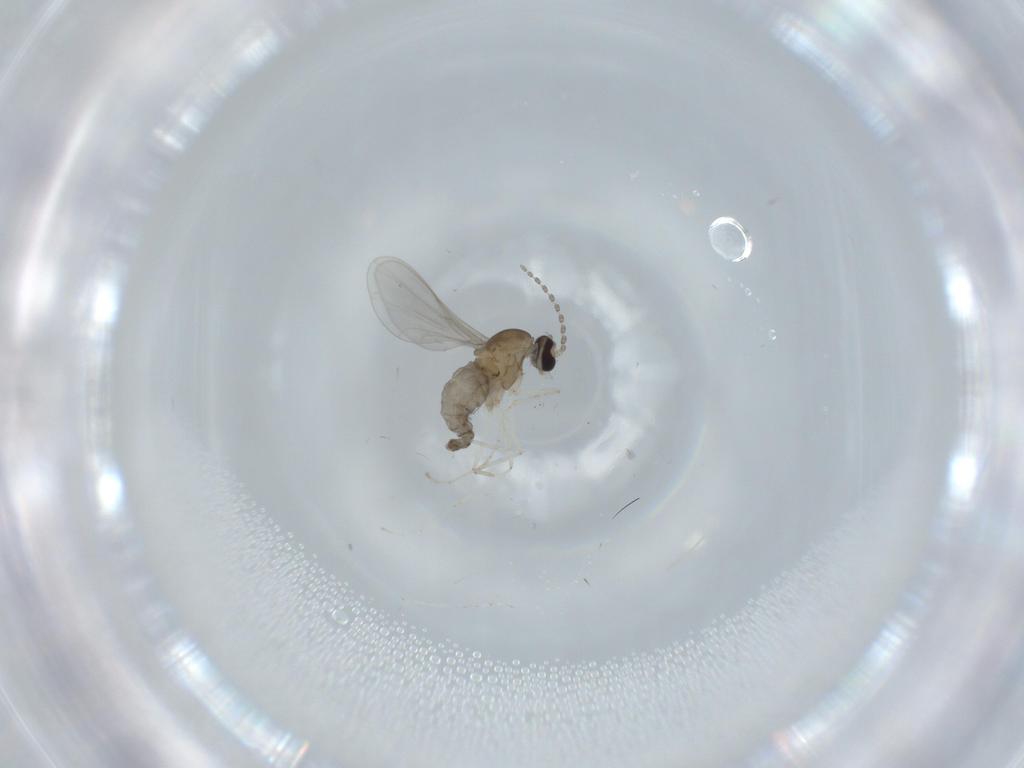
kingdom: Animalia
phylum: Arthropoda
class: Insecta
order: Diptera
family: Cecidomyiidae
